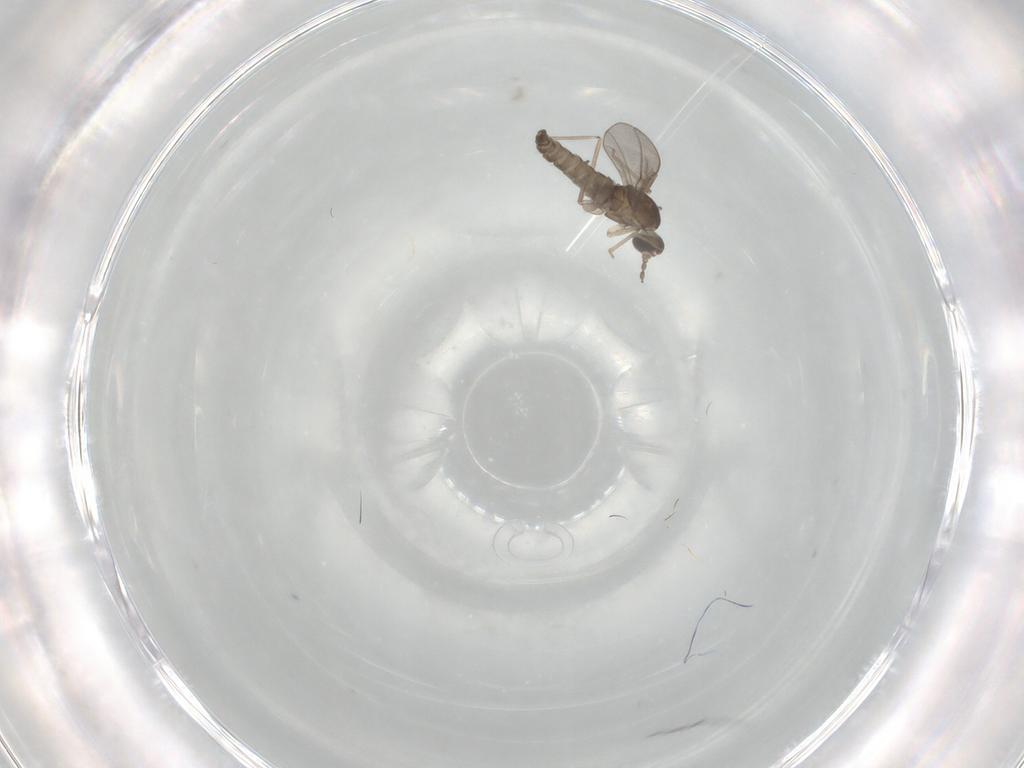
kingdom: Animalia
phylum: Arthropoda
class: Insecta
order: Diptera
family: Cecidomyiidae
